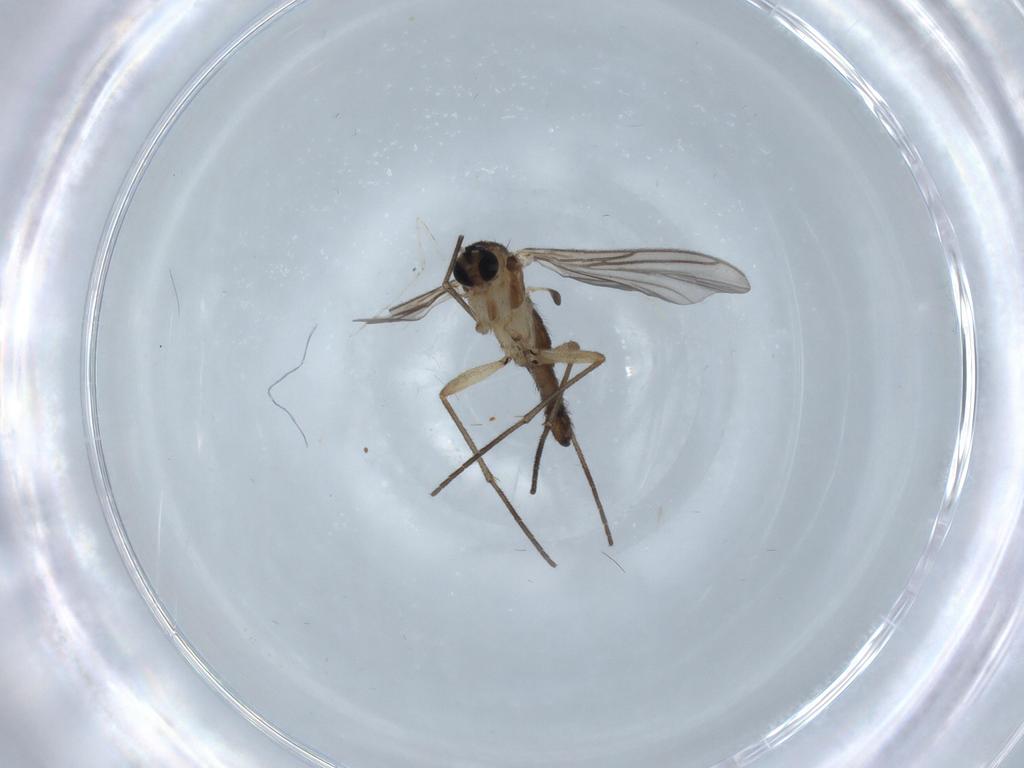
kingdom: Animalia
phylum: Arthropoda
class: Insecta
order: Diptera
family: Sciaridae
